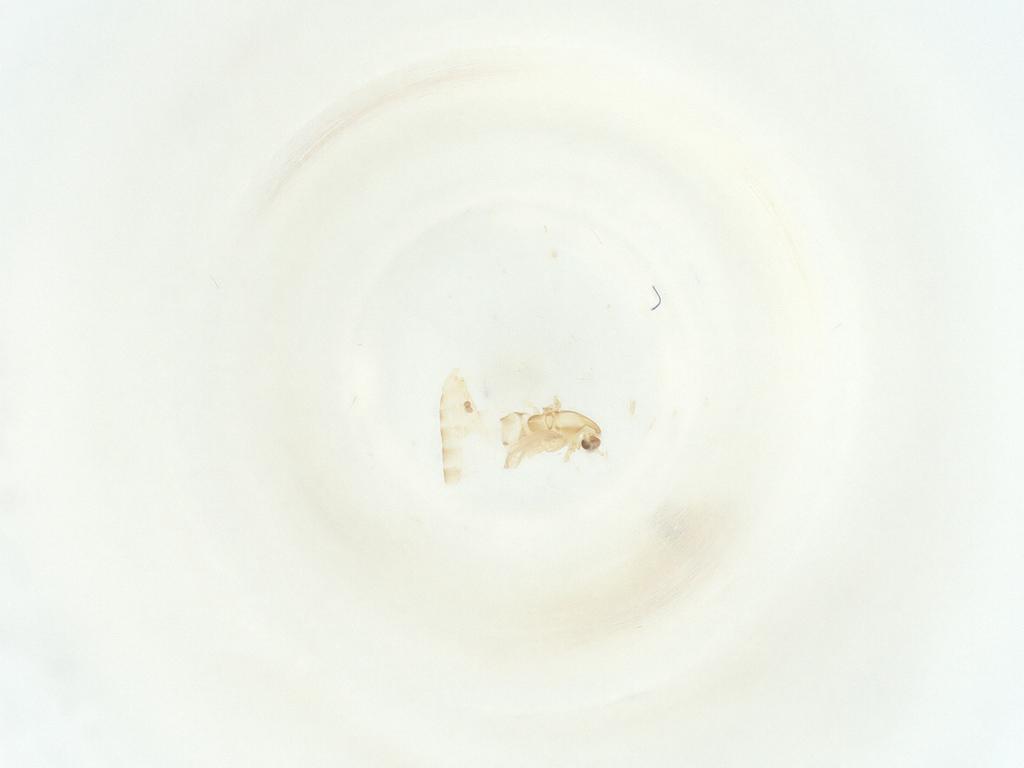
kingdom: Animalia
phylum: Arthropoda
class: Insecta
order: Diptera
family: Chironomidae
